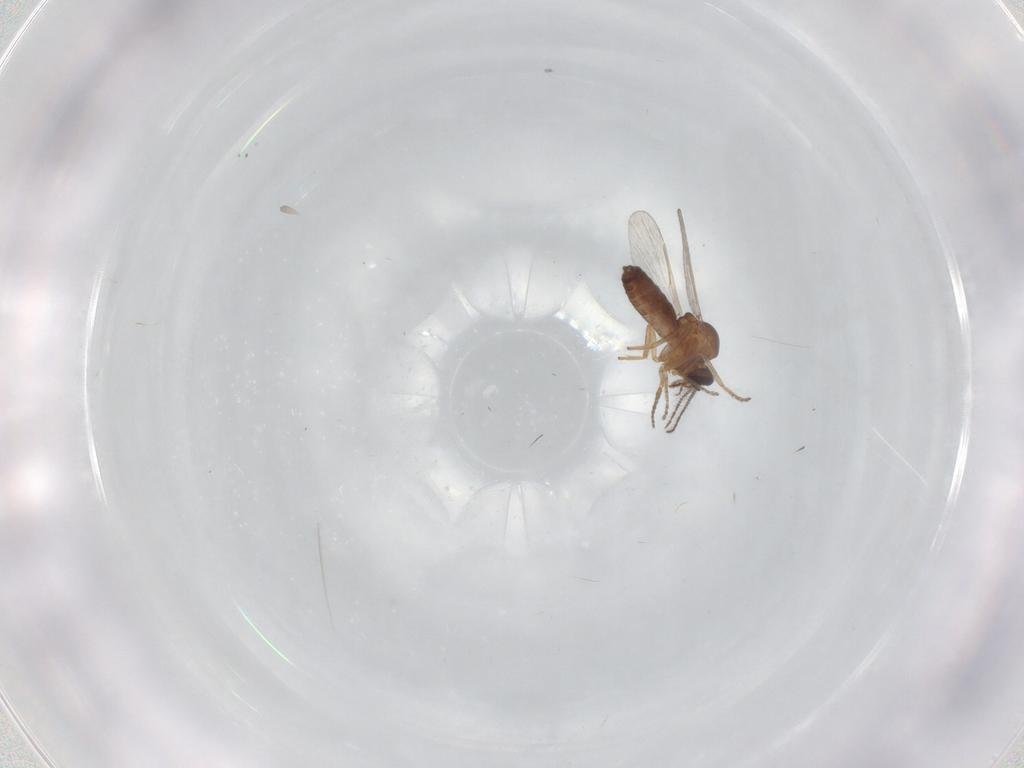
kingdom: Animalia
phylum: Arthropoda
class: Insecta
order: Diptera
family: Ceratopogonidae
